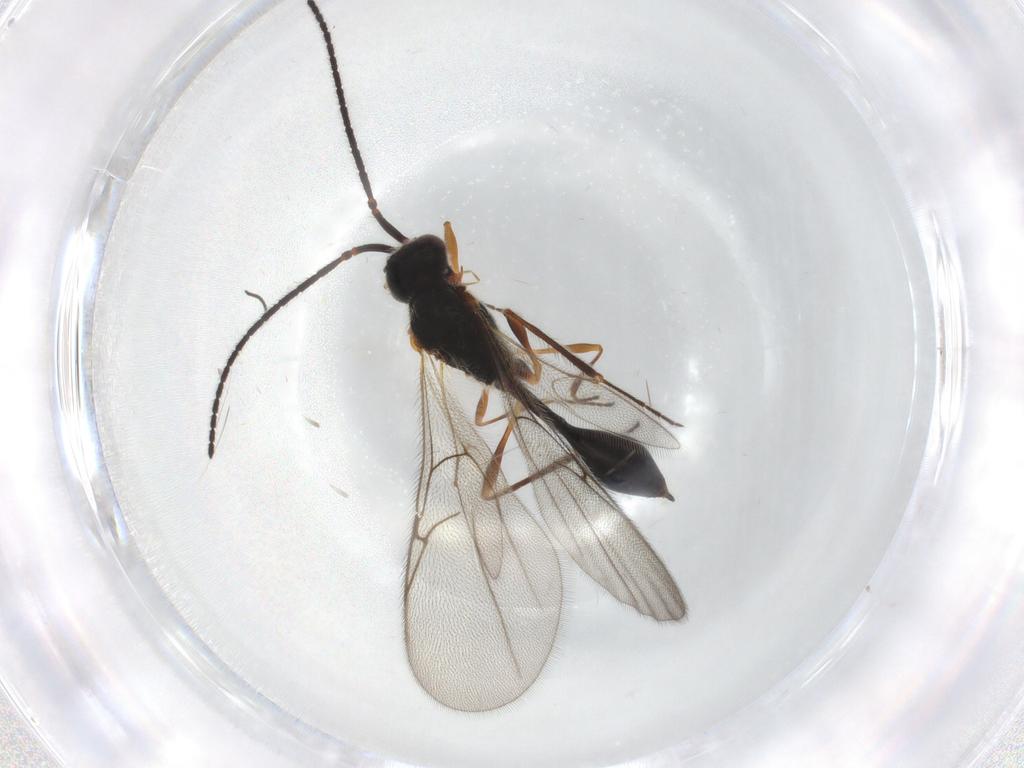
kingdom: Animalia
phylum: Arthropoda
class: Insecta
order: Hymenoptera
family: Diapriidae
